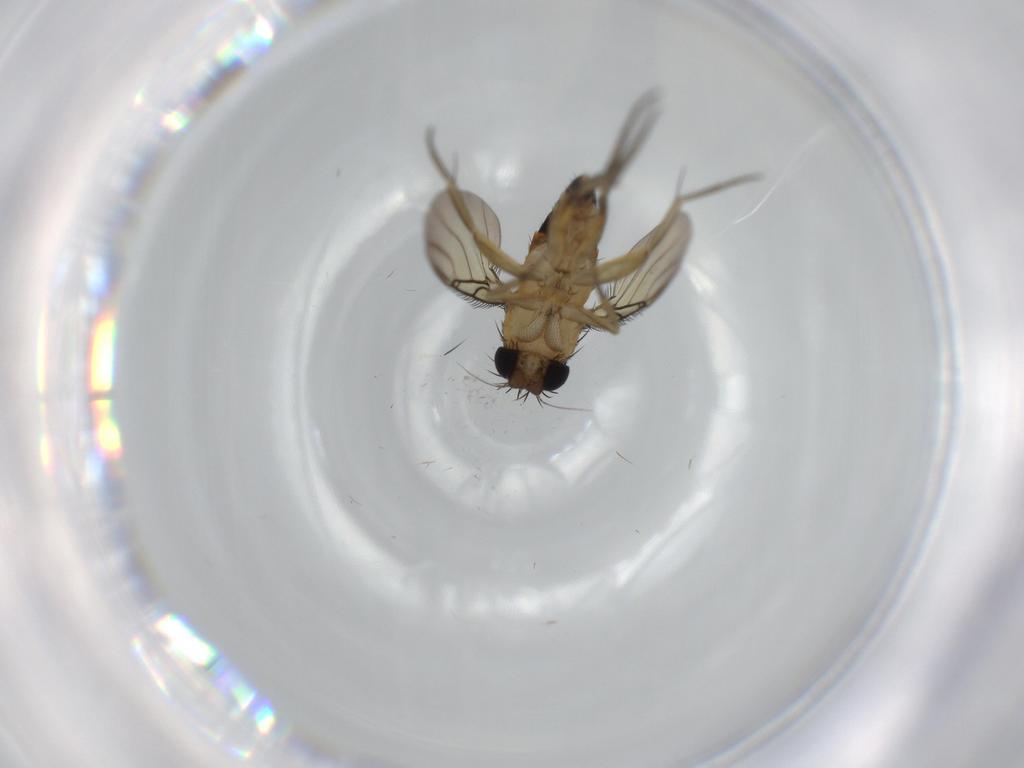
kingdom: Animalia
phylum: Arthropoda
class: Insecta
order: Diptera
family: Phoridae
